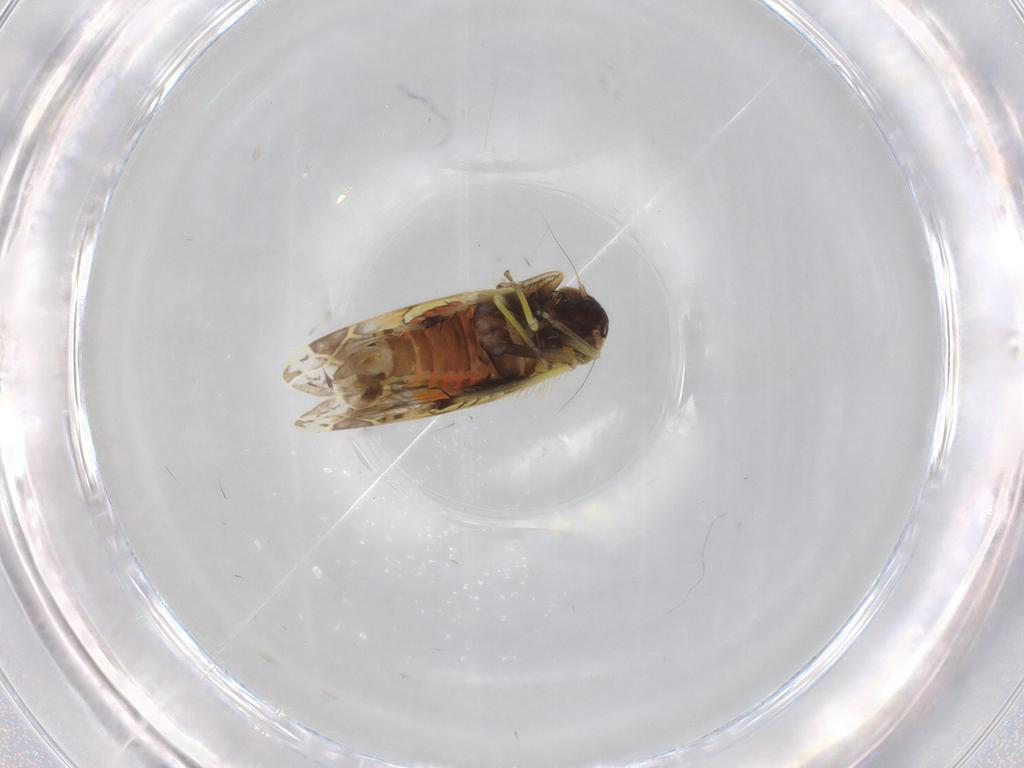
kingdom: Animalia
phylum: Arthropoda
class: Insecta
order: Hemiptera
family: Cicadellidae
